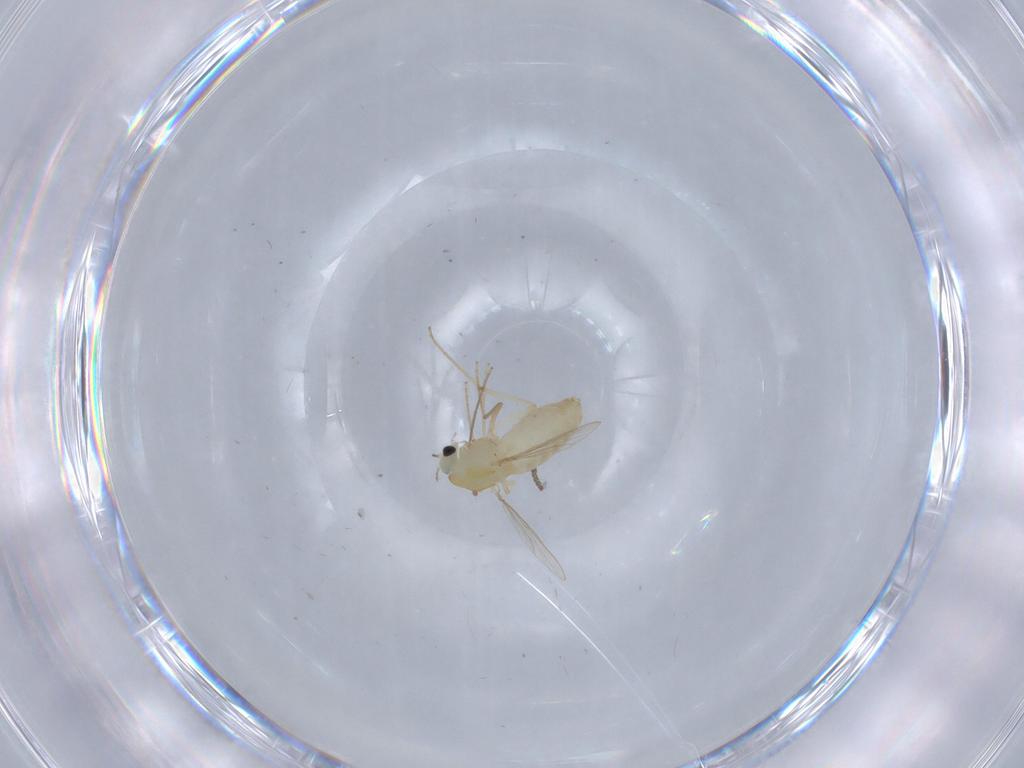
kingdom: Animalia
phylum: Arthropoda
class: Insecta
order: Diptera
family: Chironomidae
